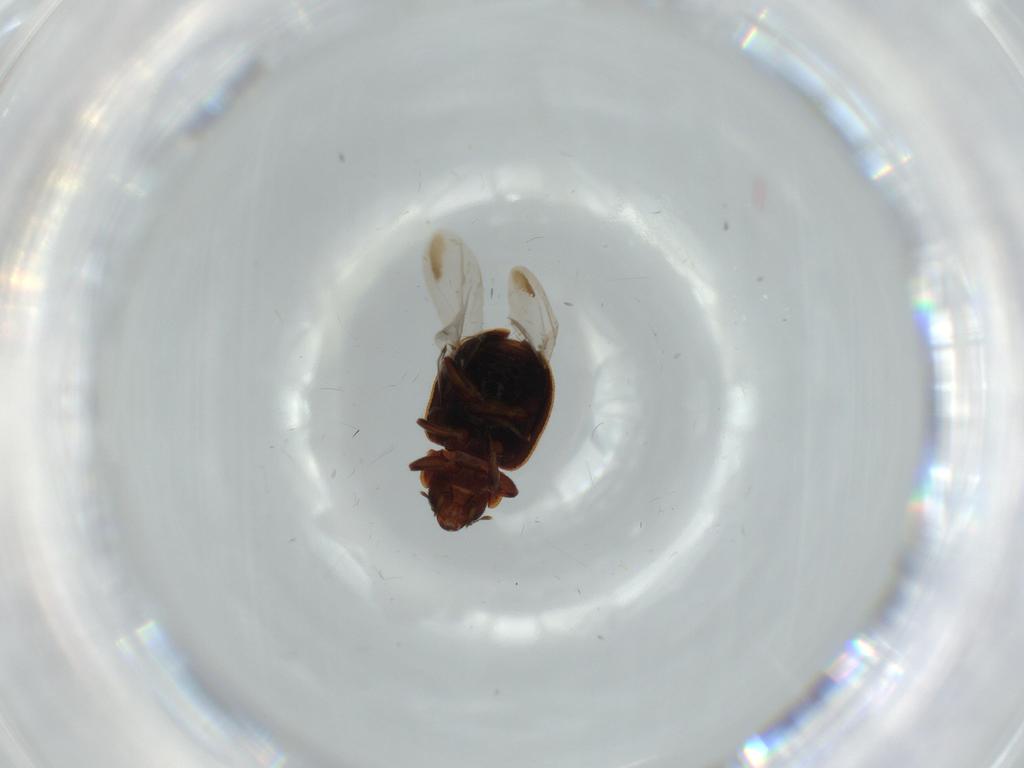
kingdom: Animalia
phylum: Arthropoda
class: Insecta
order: Coleoptera
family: Coccinellidae
